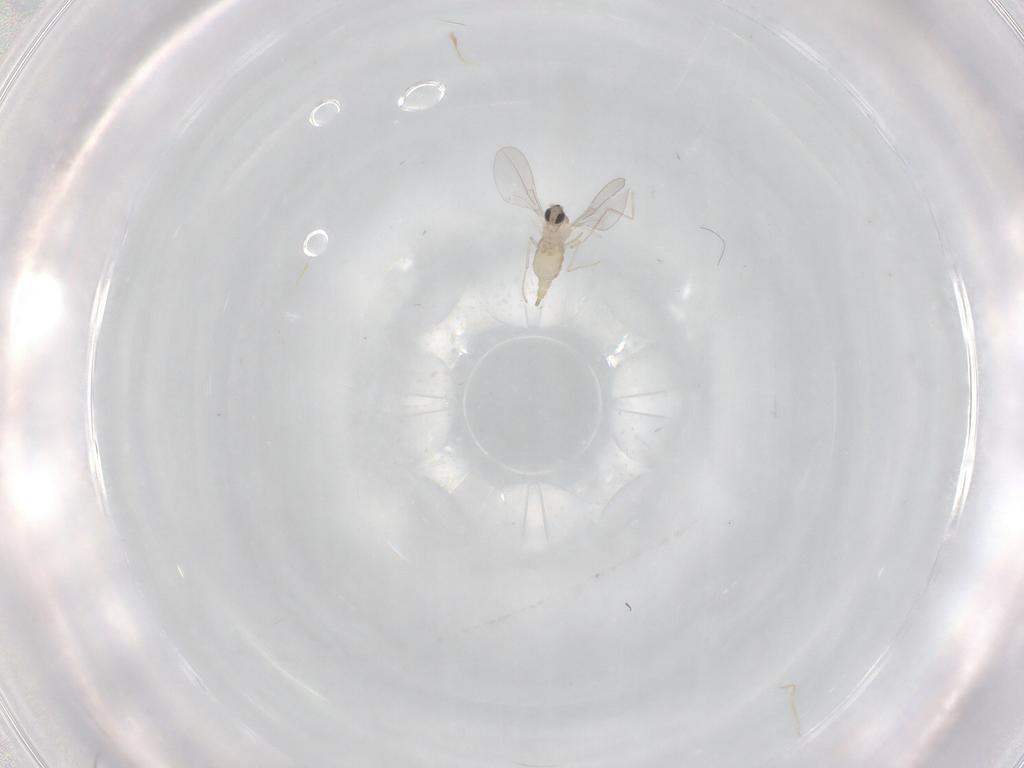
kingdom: Animalia
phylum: Arthropoda
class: Insecta
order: Diptera
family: Cecidomyiidae
